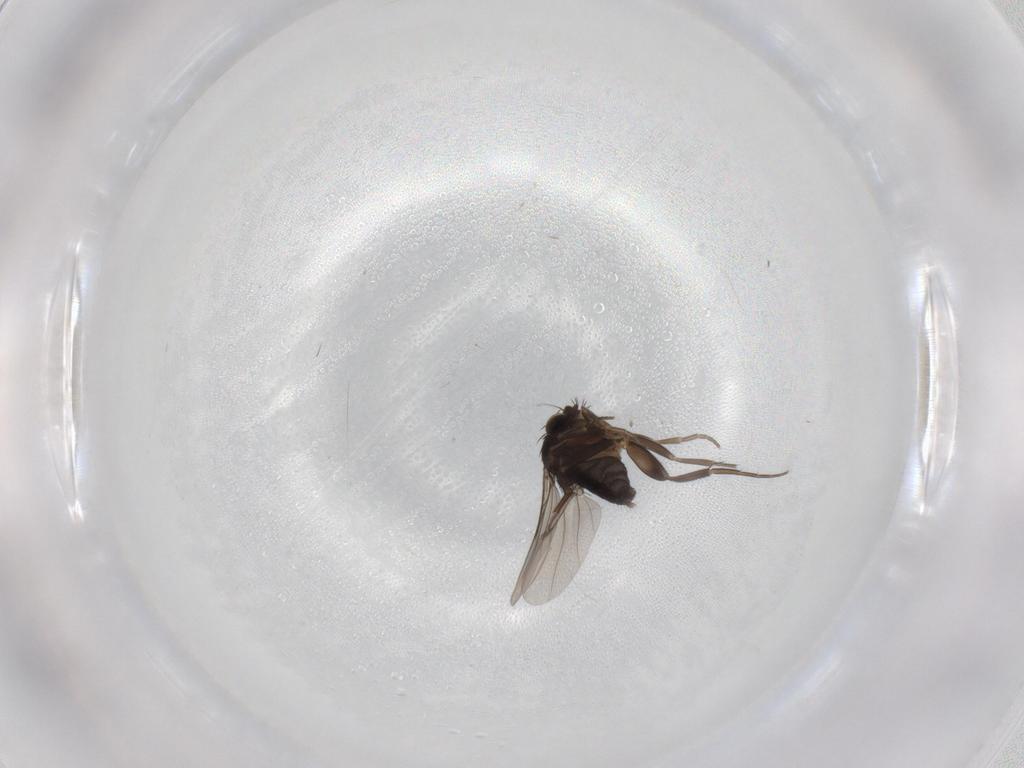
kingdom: Animalia
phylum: Arthropoda
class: Insecta
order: Diptera
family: Phoridae
